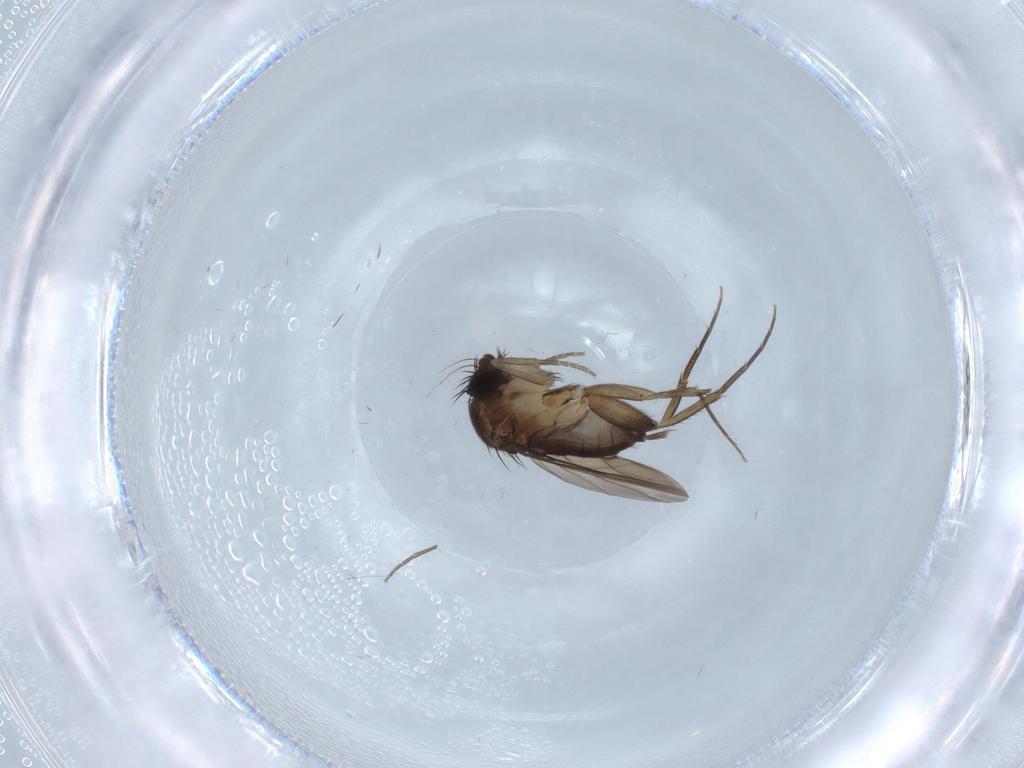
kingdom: Animalia
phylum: Arthropoda
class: Insecta
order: Diptera
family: Phoridae
